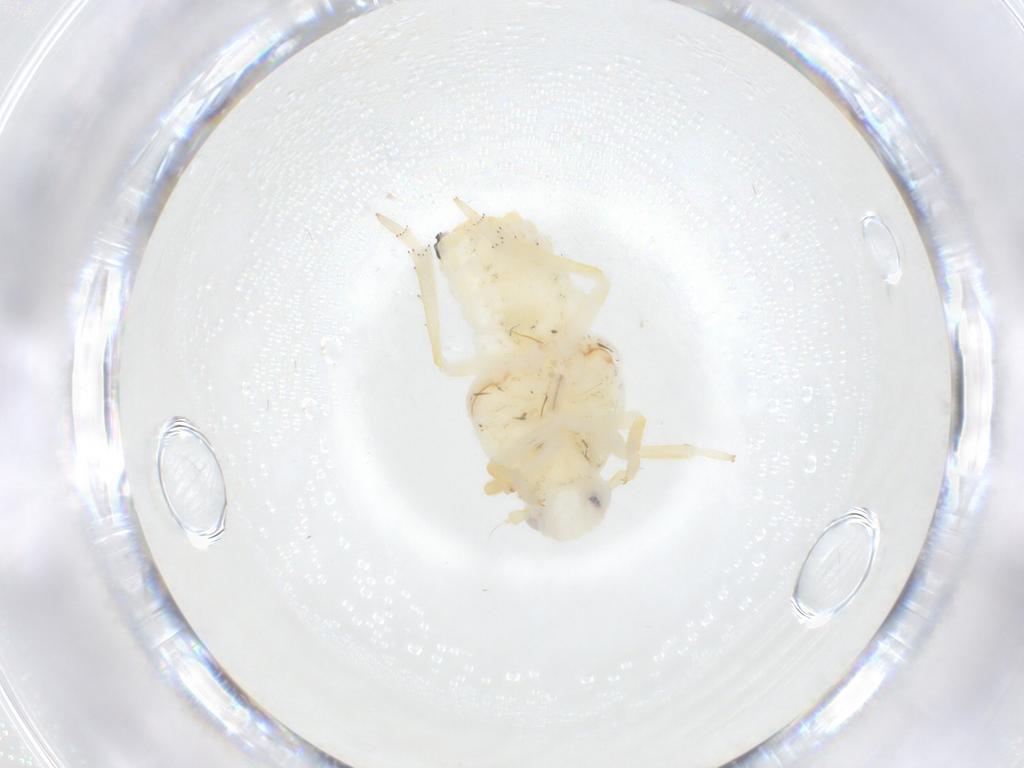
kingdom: Animalia
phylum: Arthropoda
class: Insecta
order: Hemiptera
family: Flatidae
